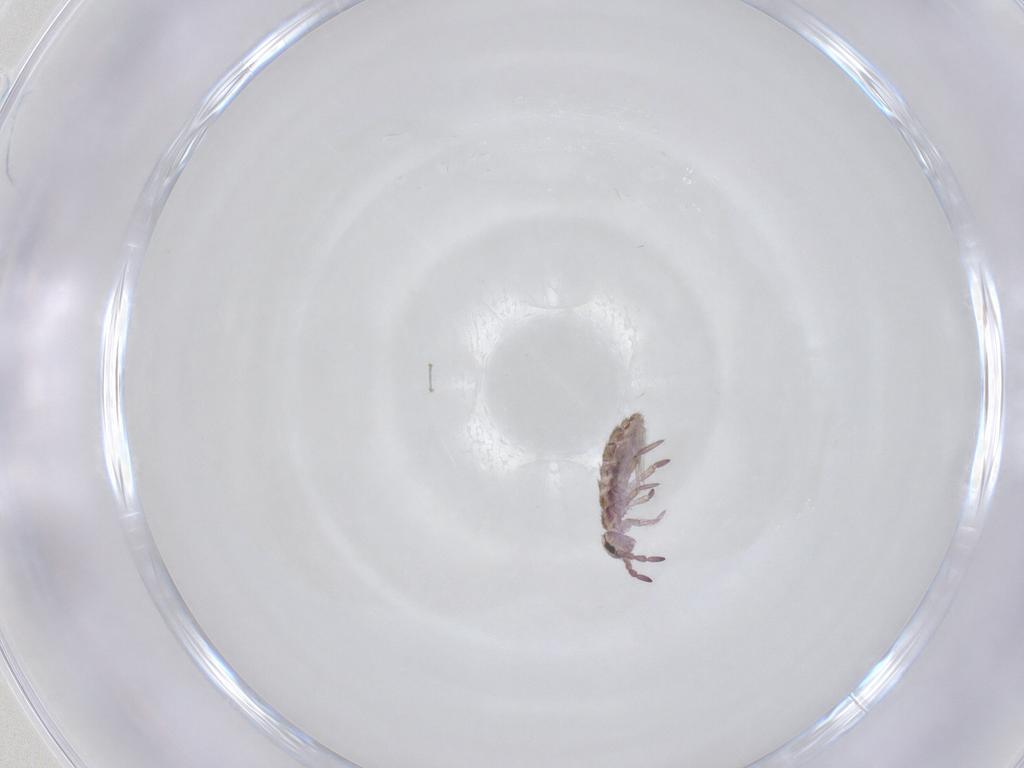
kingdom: Animalia
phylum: Arthropoda
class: Collembola
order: Entomobryomorpha
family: Isotomidae
